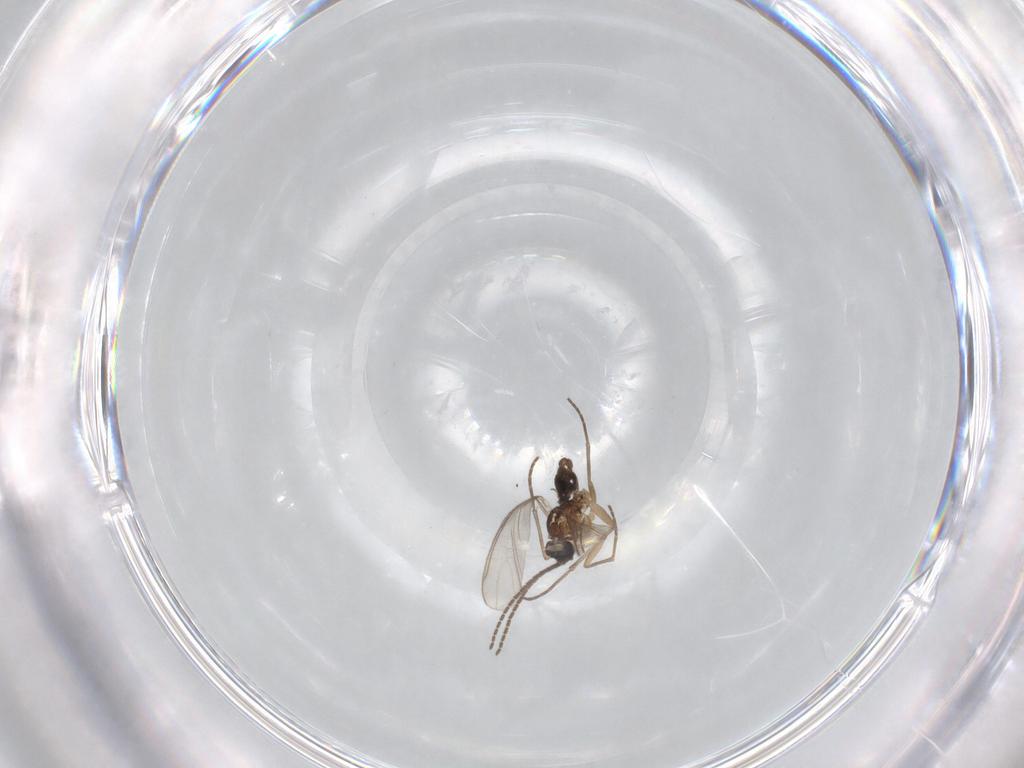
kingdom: Animalia
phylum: Arthropoda
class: Insecta
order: Diptera
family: Sciaridae
